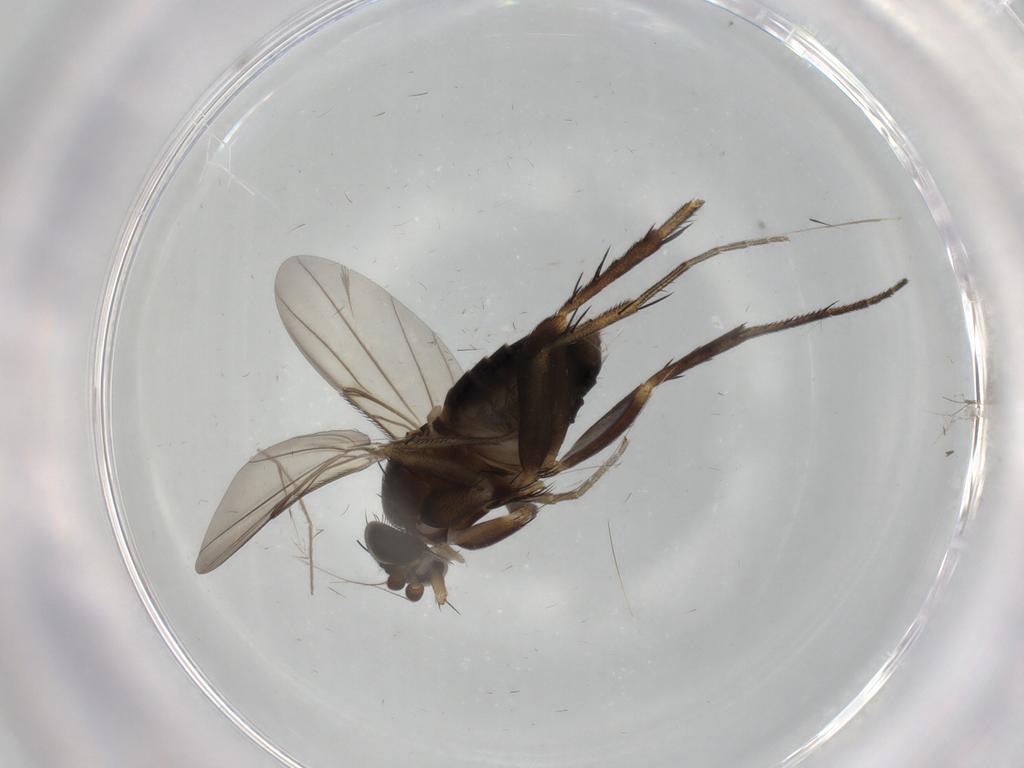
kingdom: Animalia
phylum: Arthropoda
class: Insecta
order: Diptera
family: Phoridae
